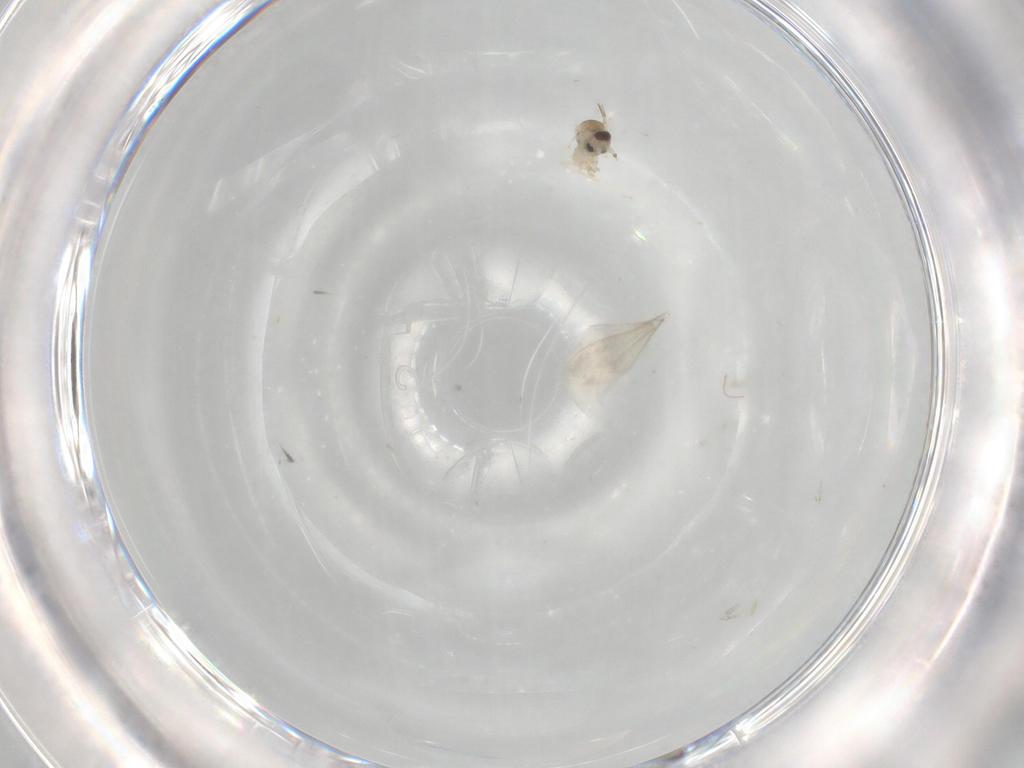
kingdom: Animalia
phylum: Arthropoda
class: Insecta
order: Diptera
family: Cecidomyiidae
